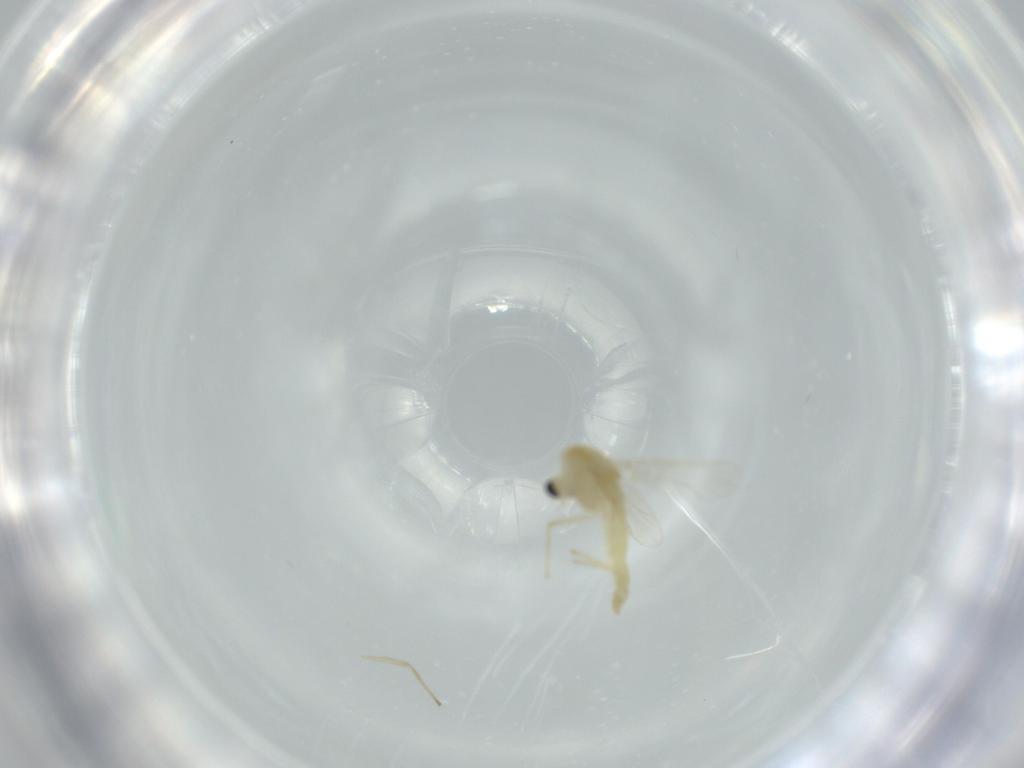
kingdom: Animalia
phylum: Arthropoda
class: Insecta
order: Diptera
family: Chironomidae
